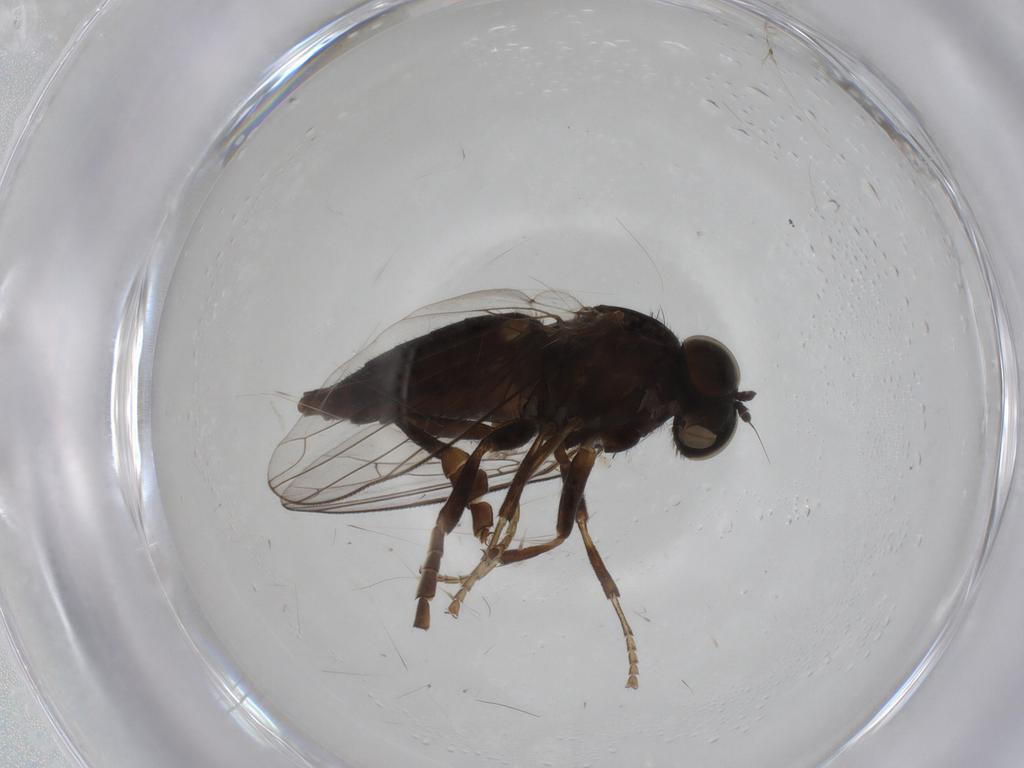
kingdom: Animalia
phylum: Arthropoda
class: Insecta
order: Diptera
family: Platypezidae
